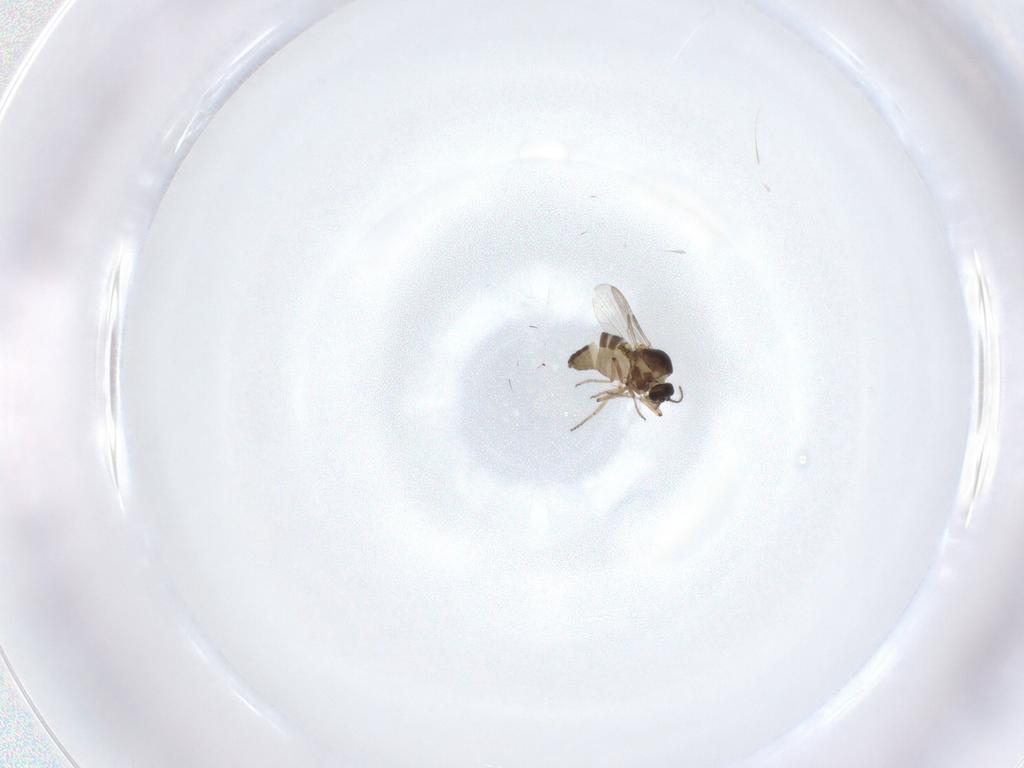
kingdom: Animalia
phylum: Arthropoda
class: Insecta
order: Diptera
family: Ceratopogonidae
